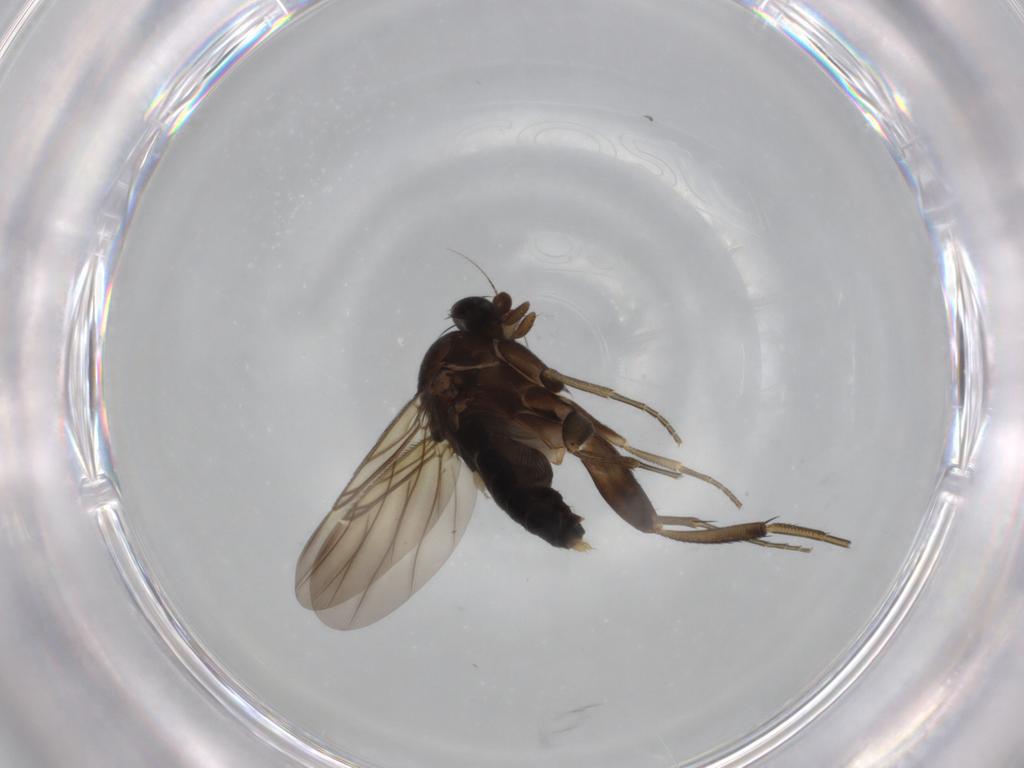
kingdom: Animalia
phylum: Arthropoda
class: Insecta
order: Diptera
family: Phoridae
